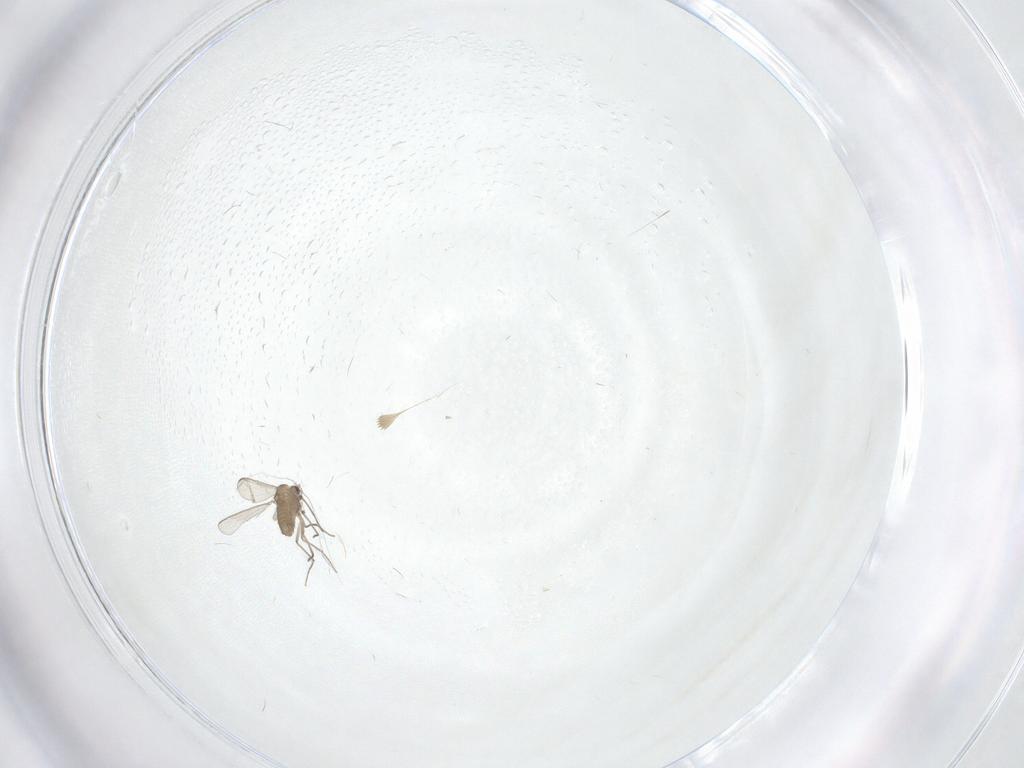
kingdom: Animalia
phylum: Arthropoda
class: Insecta
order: Diptera
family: Chironomidae
